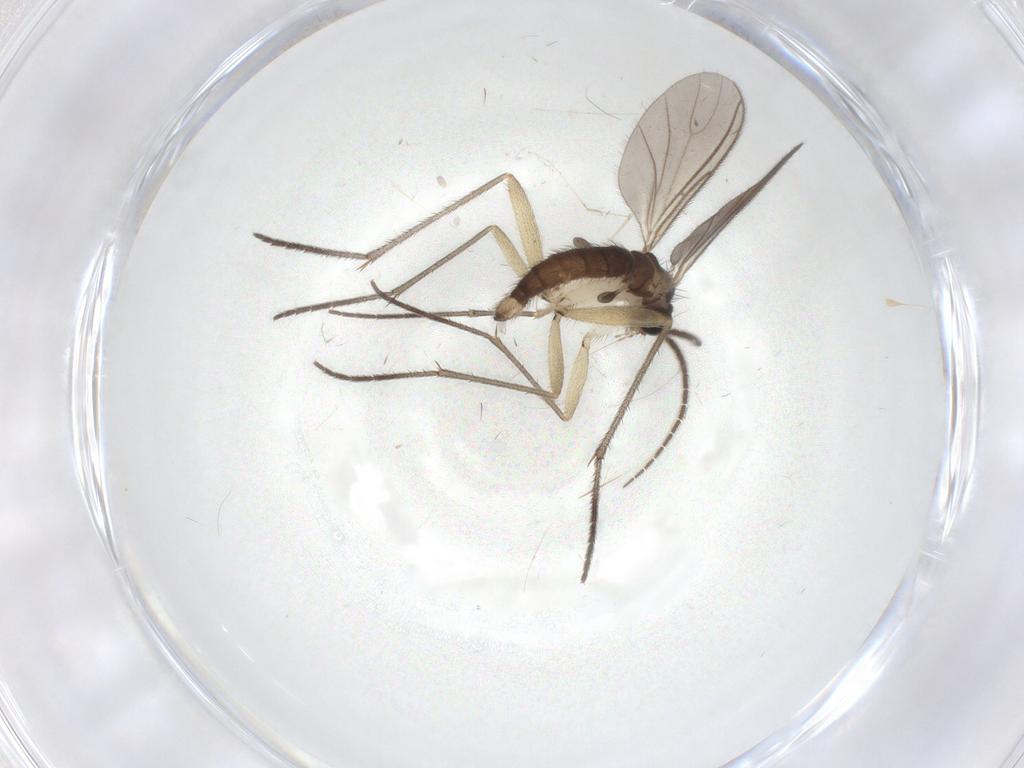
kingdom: Animalia
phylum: Arthropoda
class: Insecta
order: Diptera
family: Sciaridae
